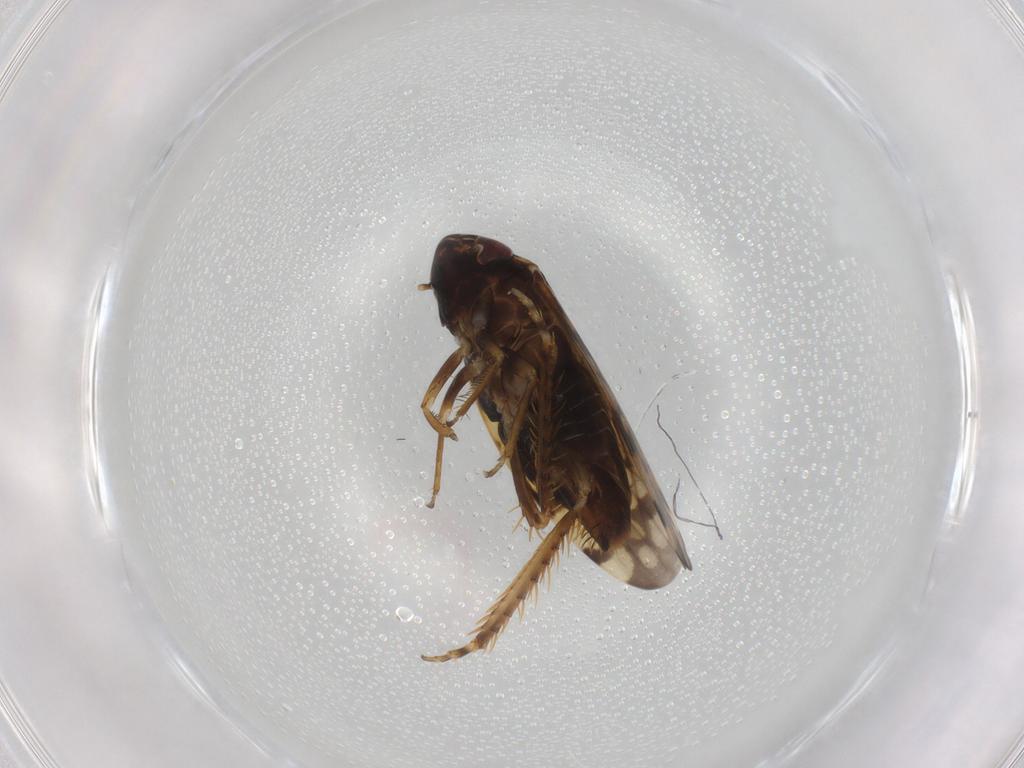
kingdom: Animalia
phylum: Arthropoda
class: Insecta
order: Hemiptera
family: Cicadellidae
